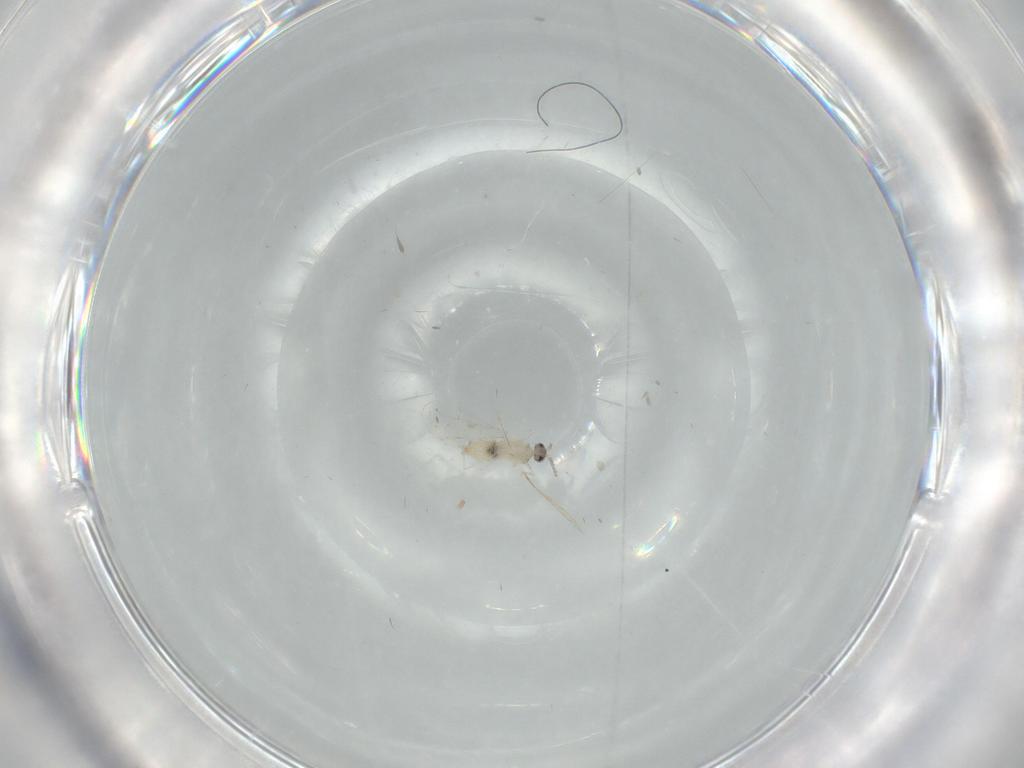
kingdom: Animalia
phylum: Arthropoda
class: Insecta
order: Diptera
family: Cecidomyiidae
